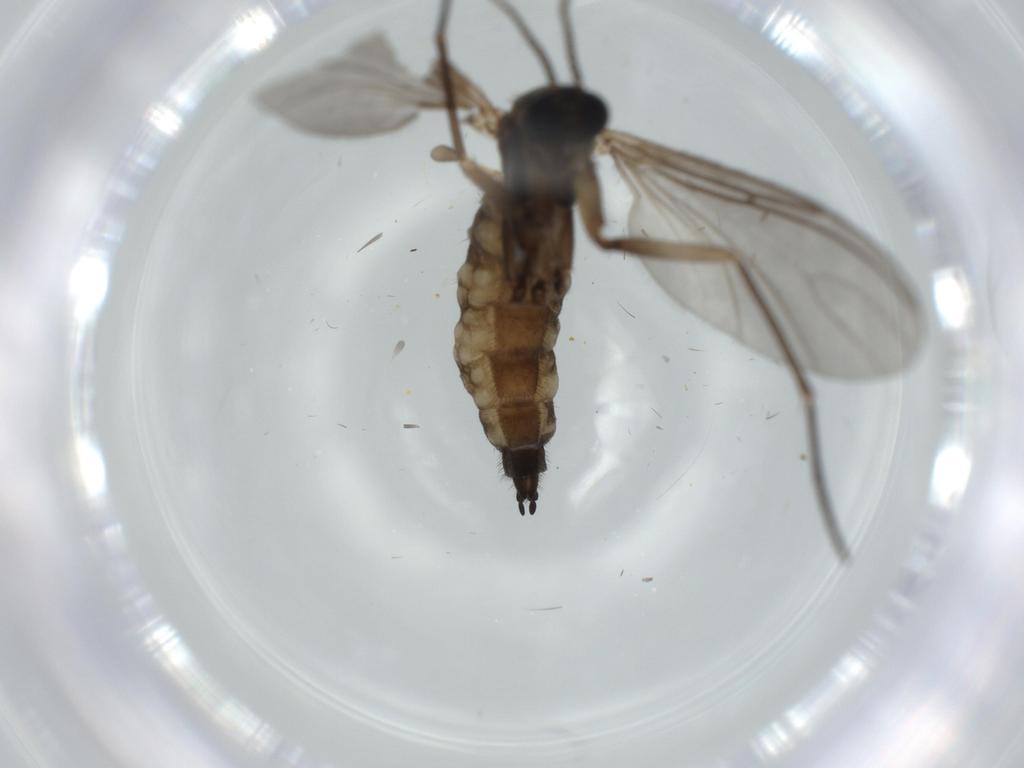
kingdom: Animalia
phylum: Arthropoda
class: Insecta
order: Diptera
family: Sciaridae
